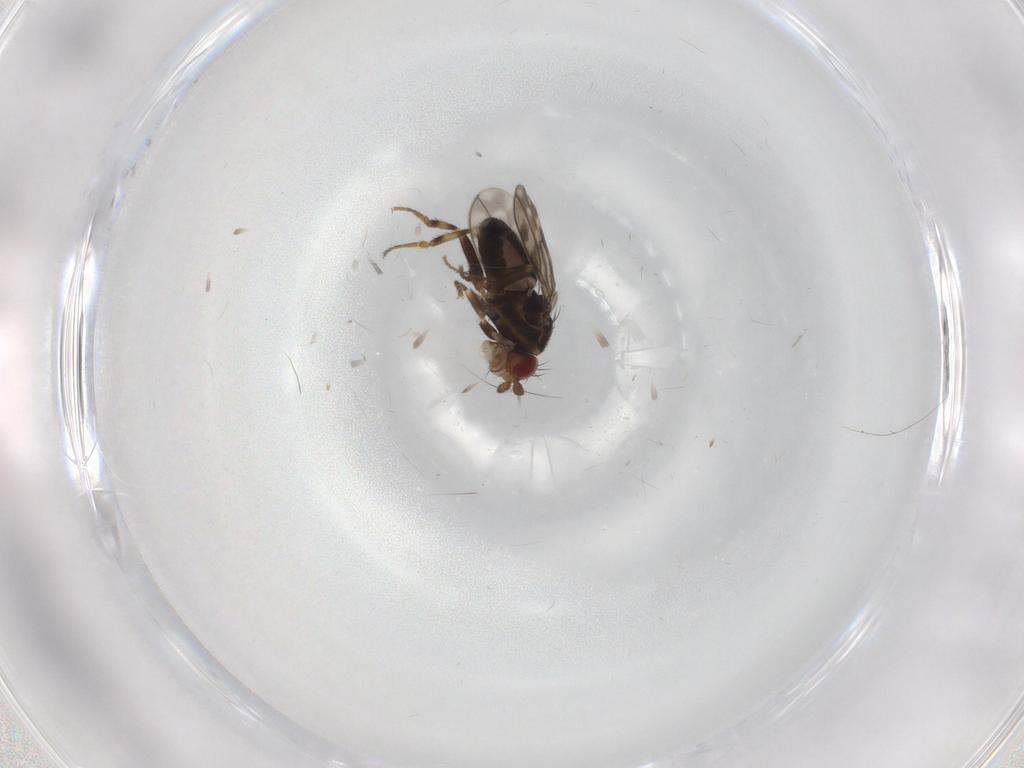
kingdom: Animalia
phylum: Arthropoda
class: Insecta
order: Diptera
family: Sphaeroceridae
